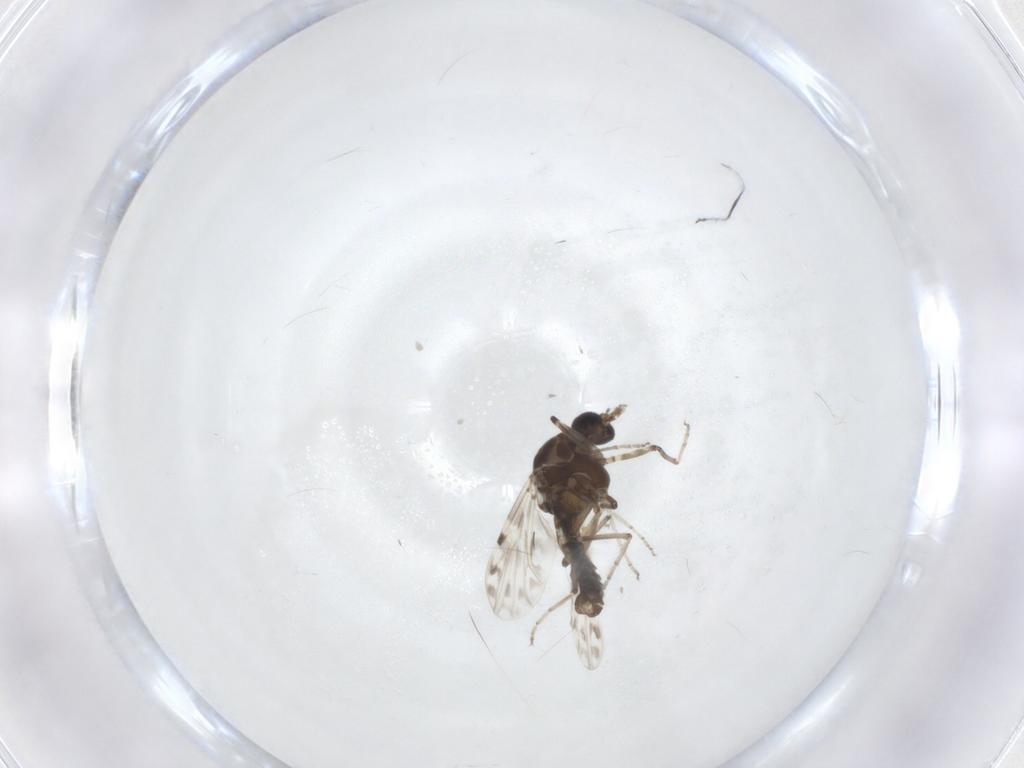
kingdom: Animalia
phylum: Arthropoda
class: Insecta
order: Diptera
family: Ceratopogonidae
